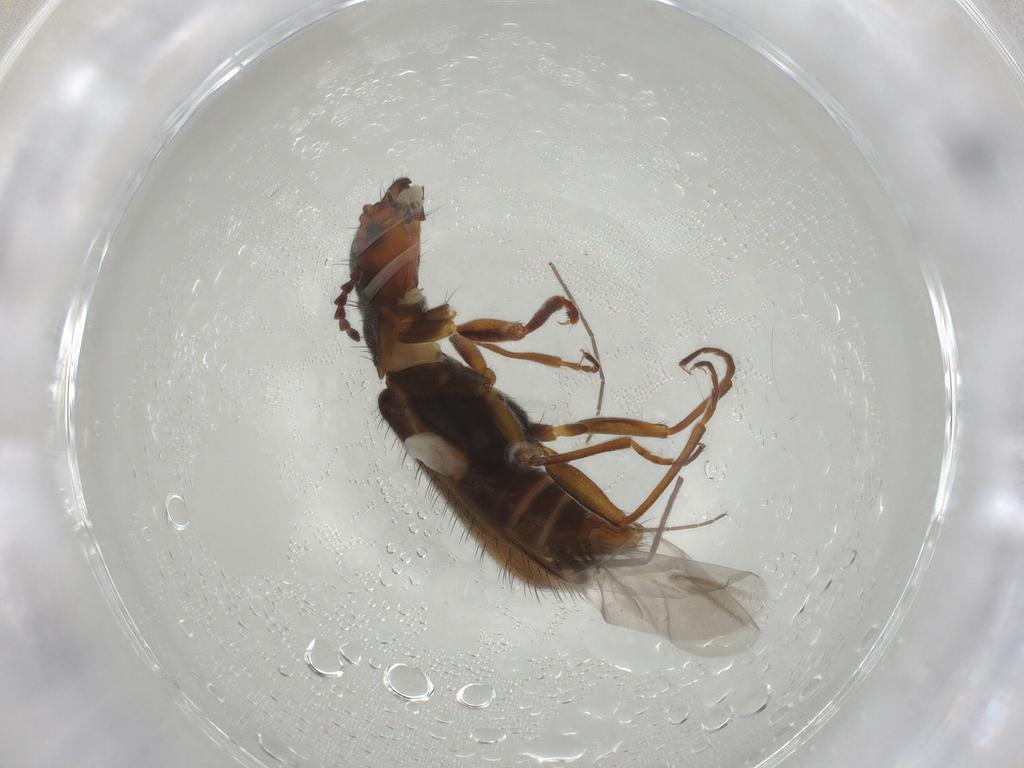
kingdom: Animalia
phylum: Arthropoda
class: Insecta
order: Coleoptera
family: Melyridae
